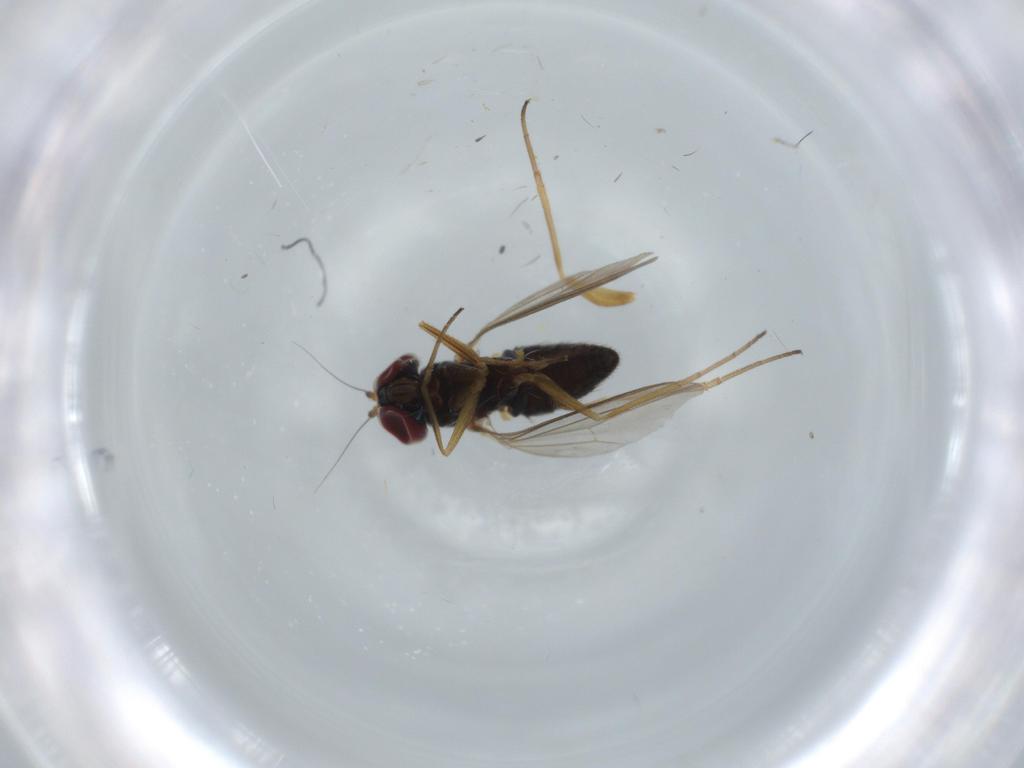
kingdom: Animalia
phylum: Arthropoda
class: Insecta
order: Diptera
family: Dolichopodidae
